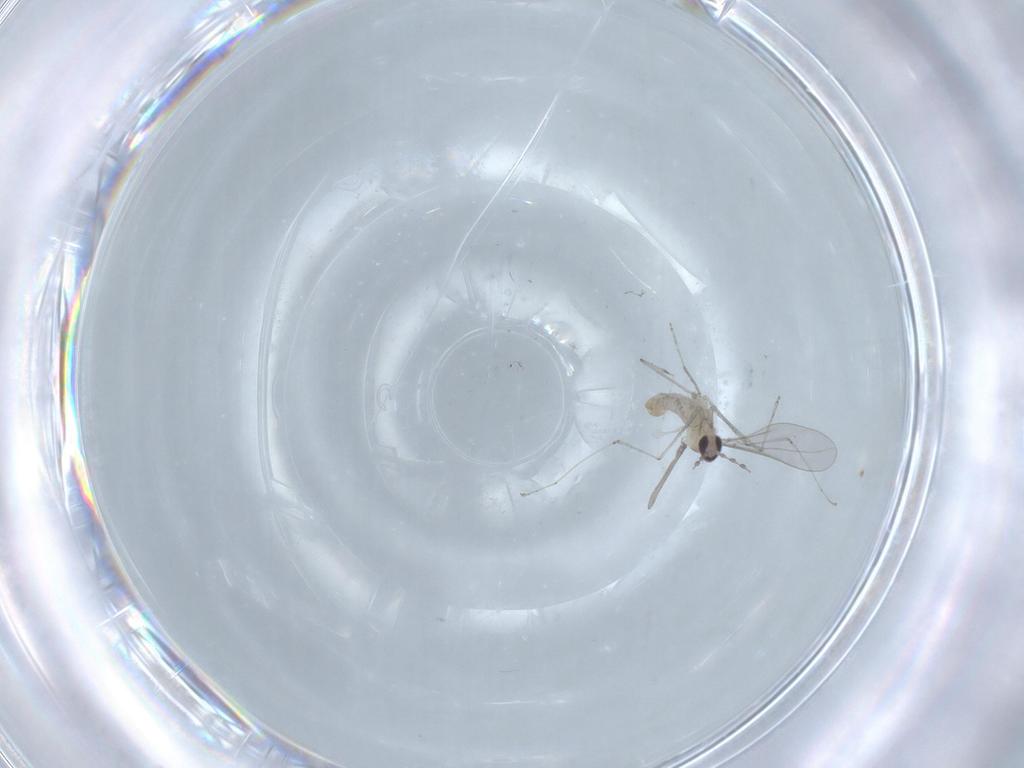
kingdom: Animalia
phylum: Arthropoda
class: Insecta
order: Diptera
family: Cecidomyiidae
